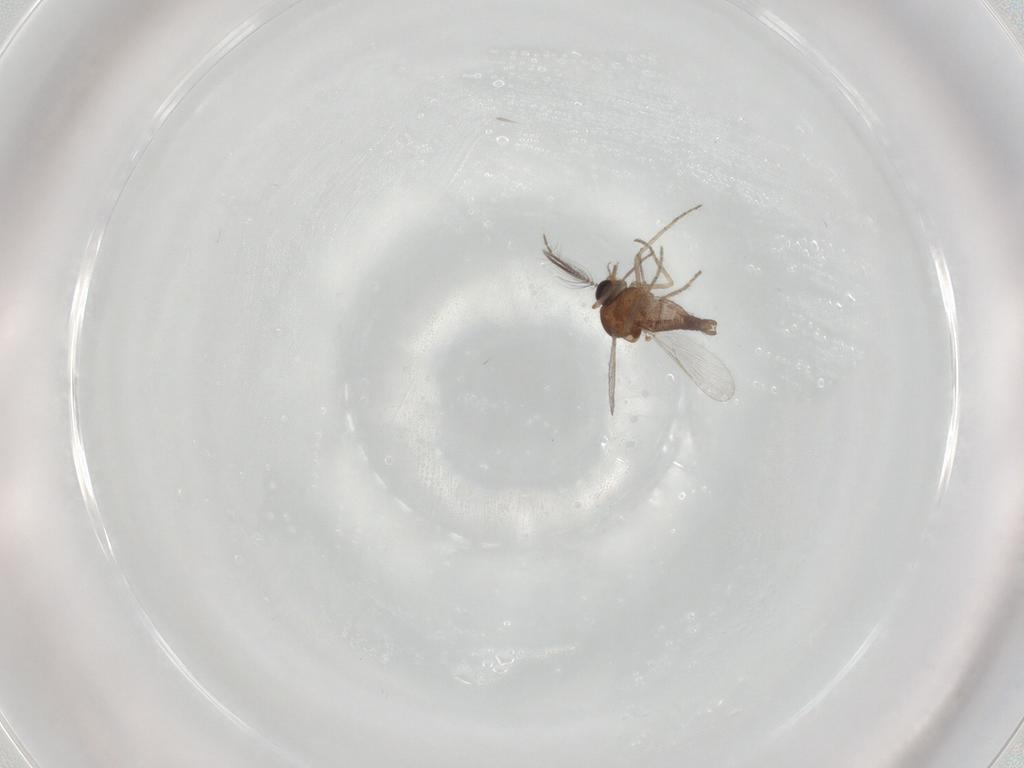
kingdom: Animalia
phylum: Arthropoda
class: Insecta
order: Diptera
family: Ceratopogonidae
